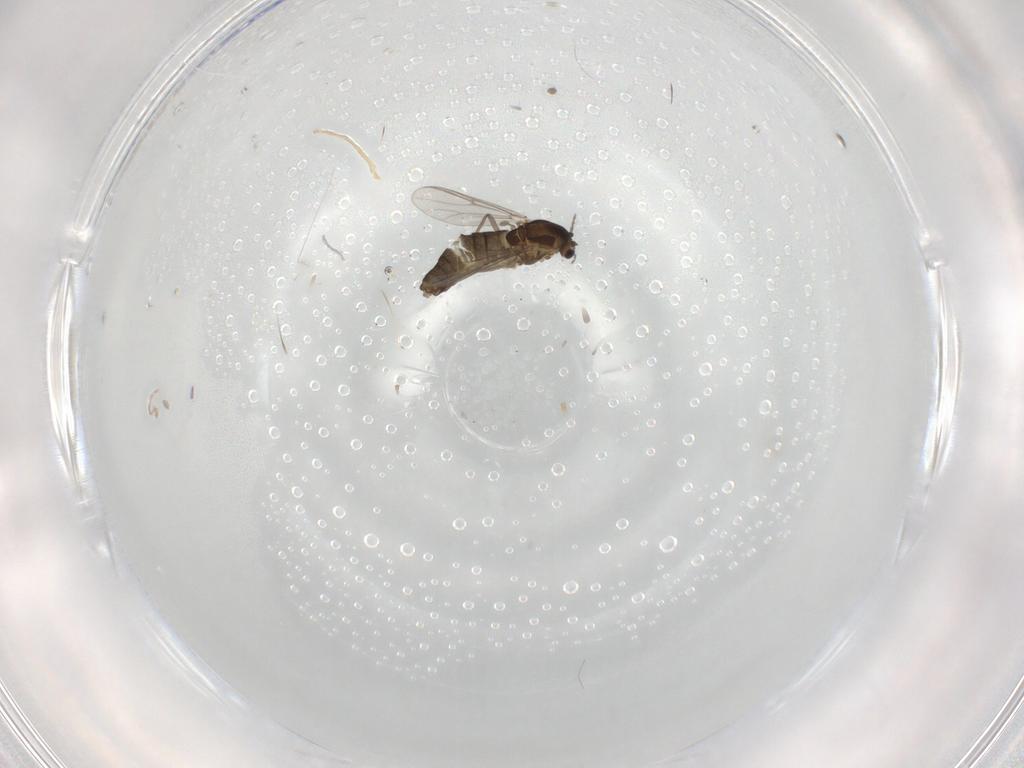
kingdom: Animalia
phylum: Arthropoda
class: Insecta
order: Diptera
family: Chironomidae
